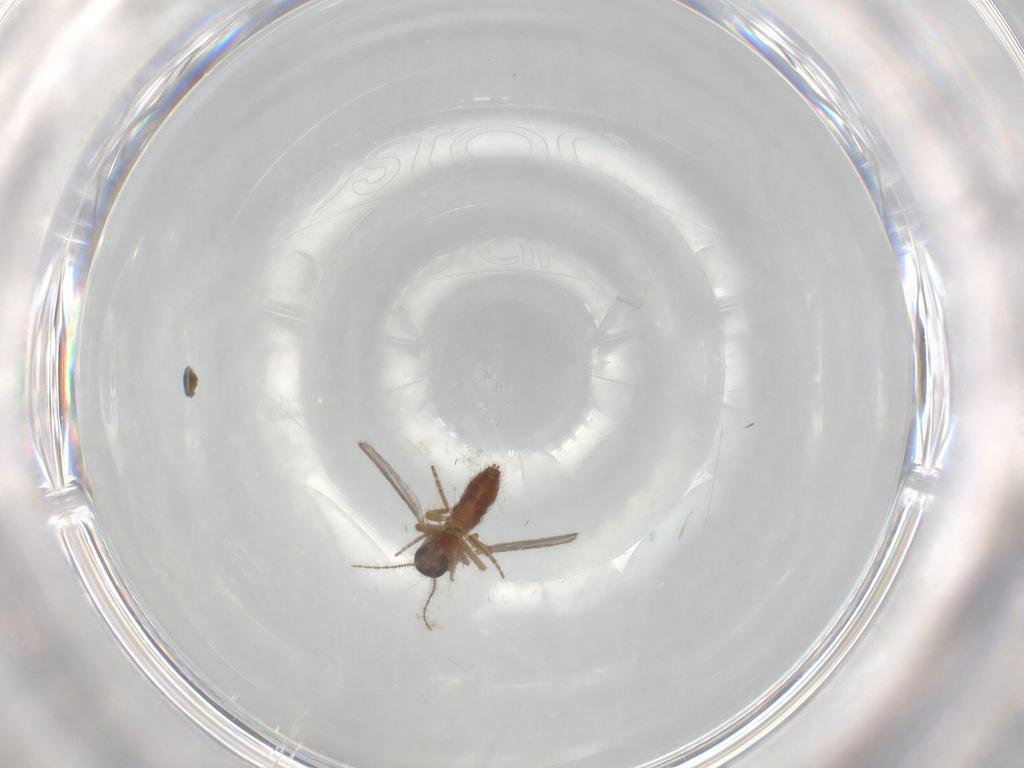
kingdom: Animalia
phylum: Arthropoda
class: Insecta
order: Diptera
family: Ceratopogonidae
